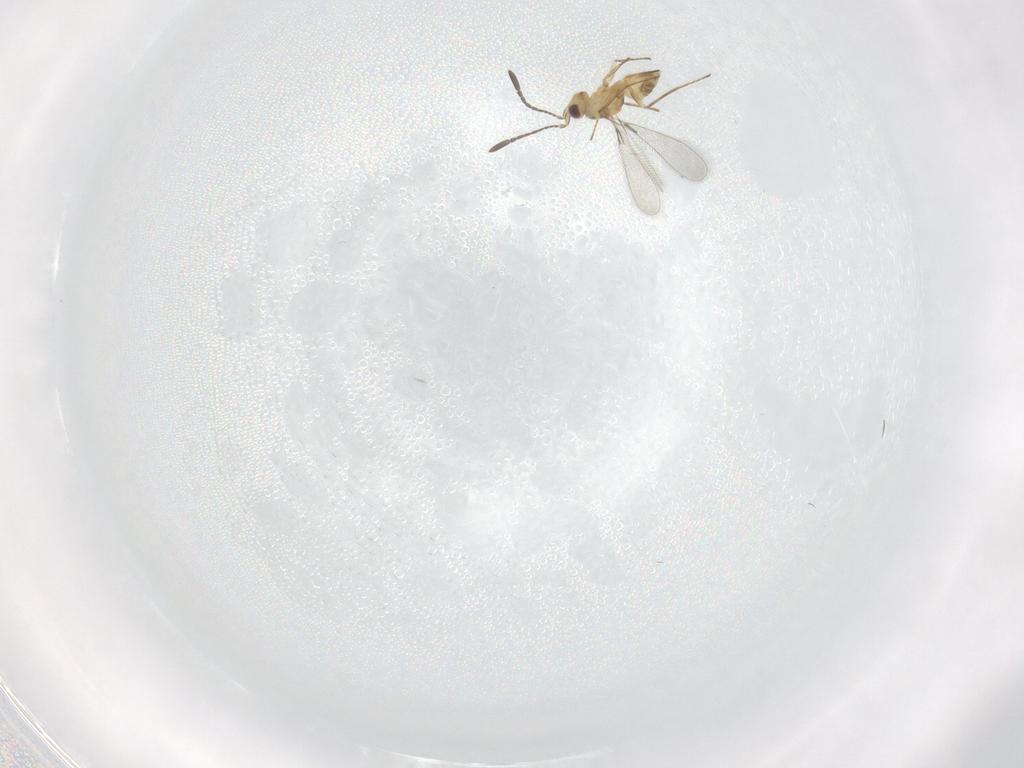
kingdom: Animalia
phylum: Arthropoda
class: Insecta
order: Hymenoptera
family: Mymaridae
